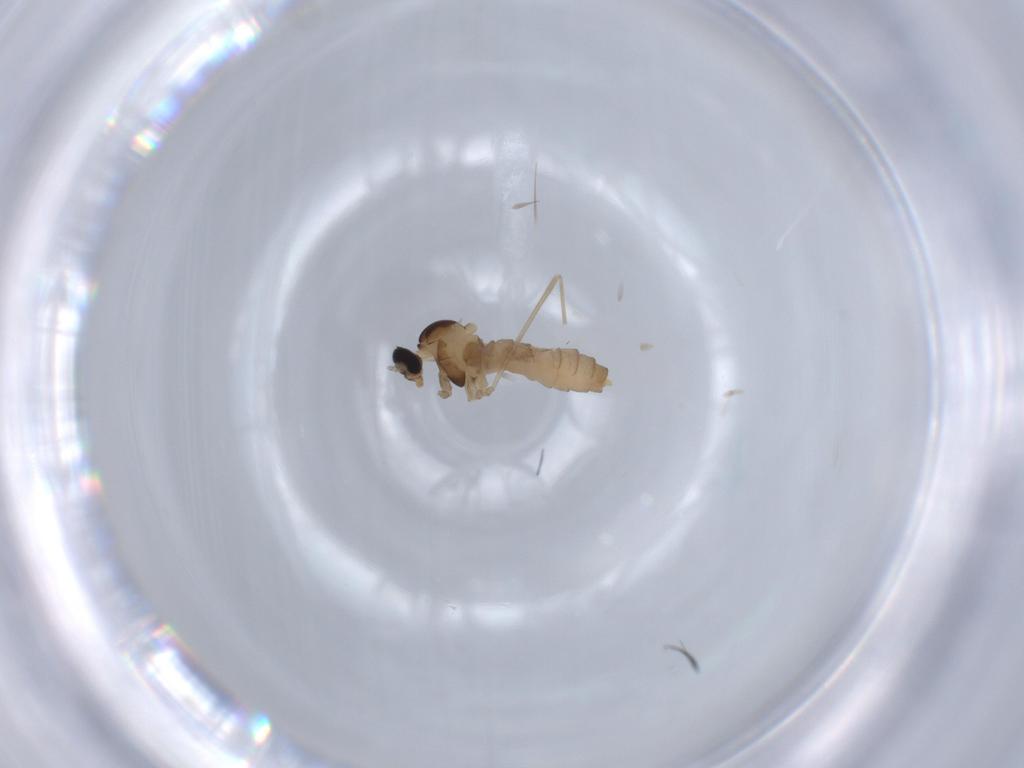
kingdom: Animalia
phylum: Arthropoda
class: Insecta
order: Diptera
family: Cecidomyiidae
